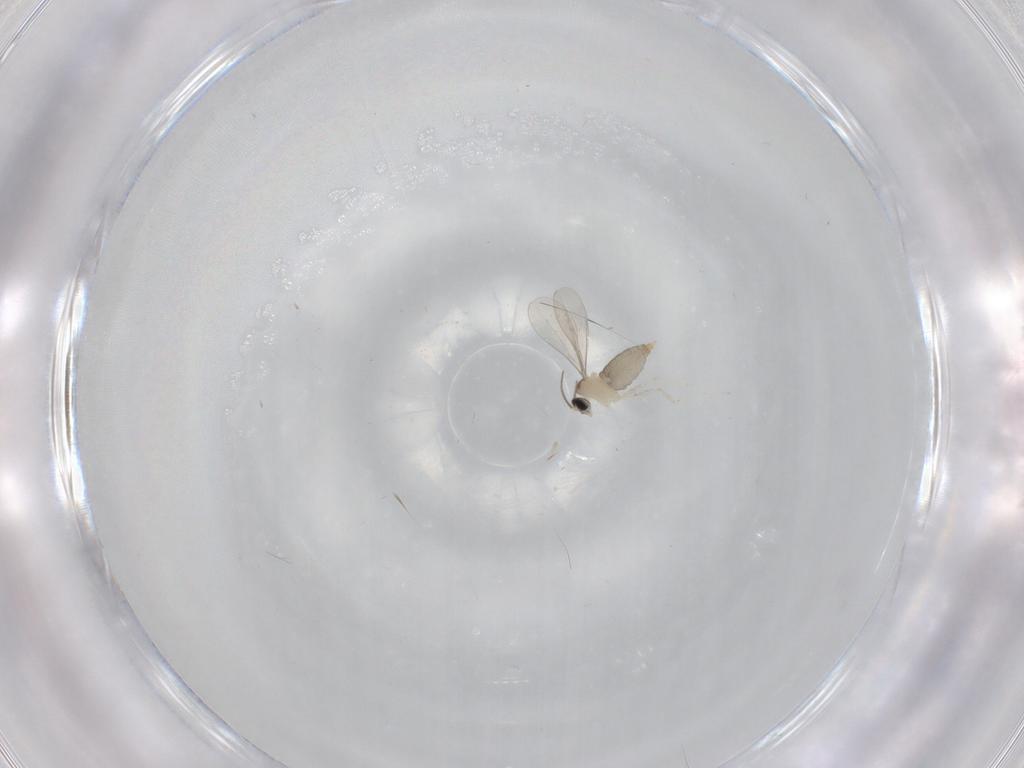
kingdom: Animalia
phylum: Arthropoda
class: Insecta
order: Diptera
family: Cecidomyiidae
